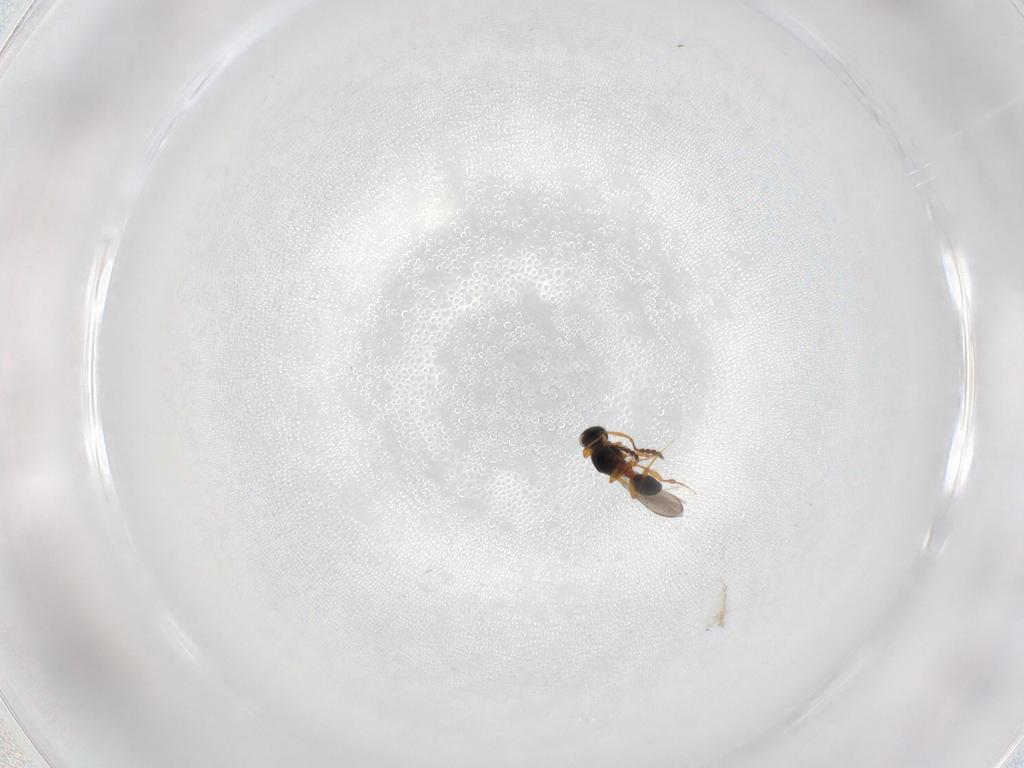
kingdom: Animalia
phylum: Arthropoda
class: Insecta
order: Hymenoptera
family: Platygastridae
